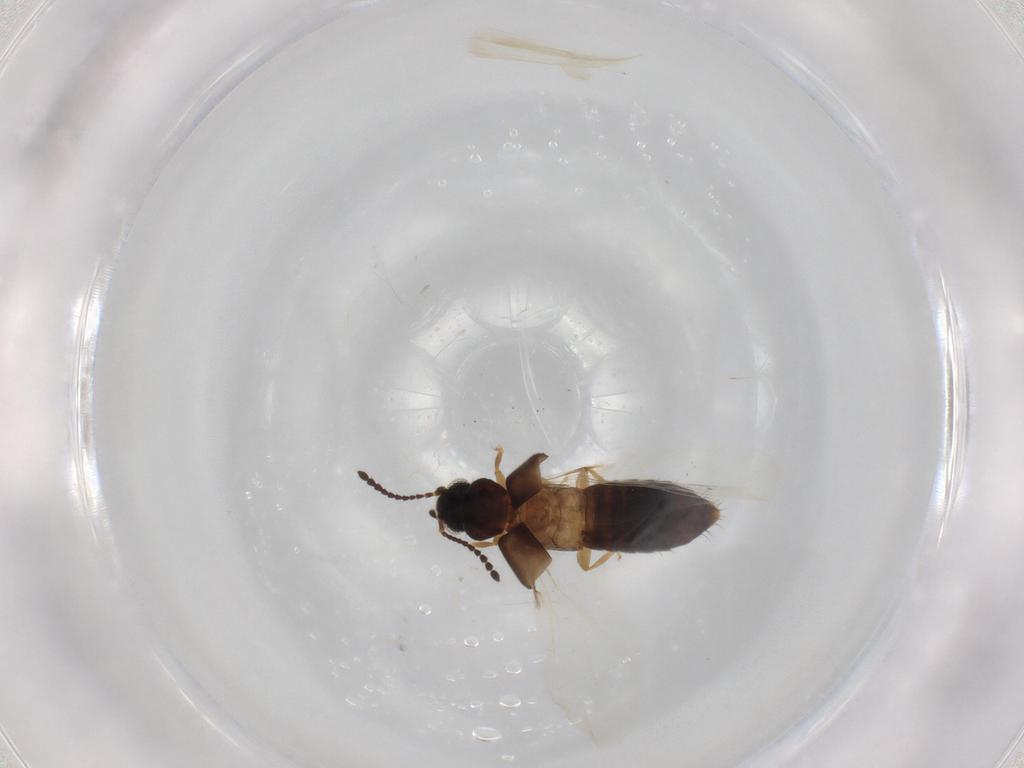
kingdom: Animalia
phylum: Arthropoda
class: Insecta
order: Coleoptera
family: Staphylinidae
